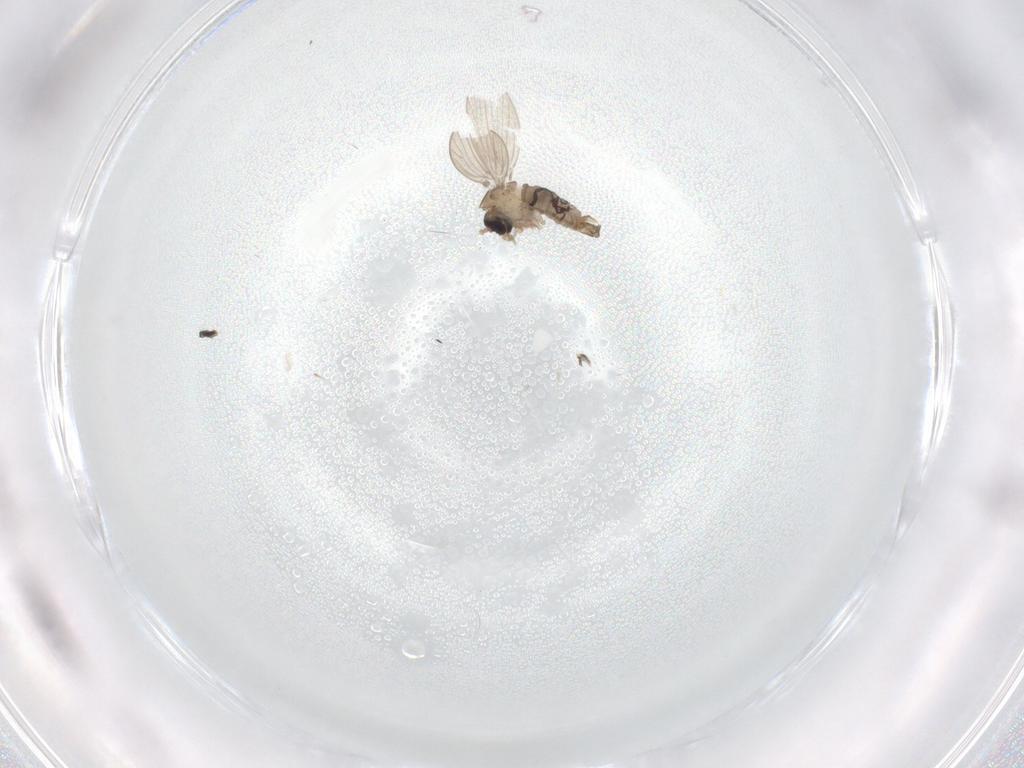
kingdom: Animalia
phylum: Arthropoda
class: Insecta
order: Diptera
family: Psychodidae
